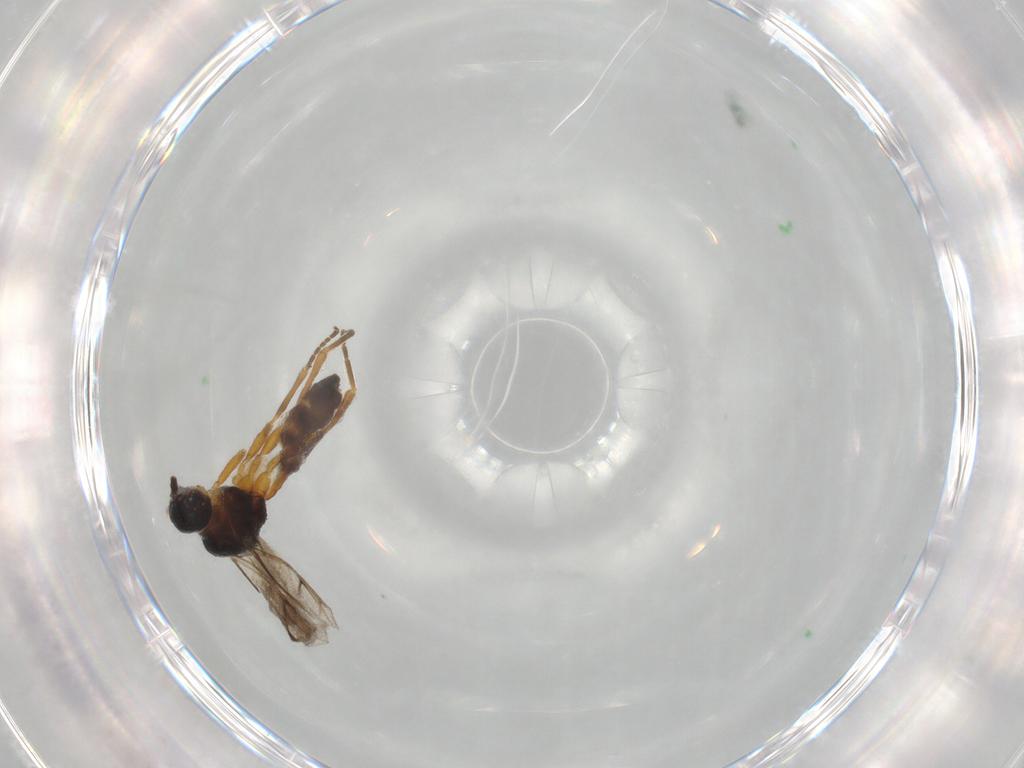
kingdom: Animalia
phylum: Arthropoda
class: Insecta
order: Hymenoptera
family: Braconidae
